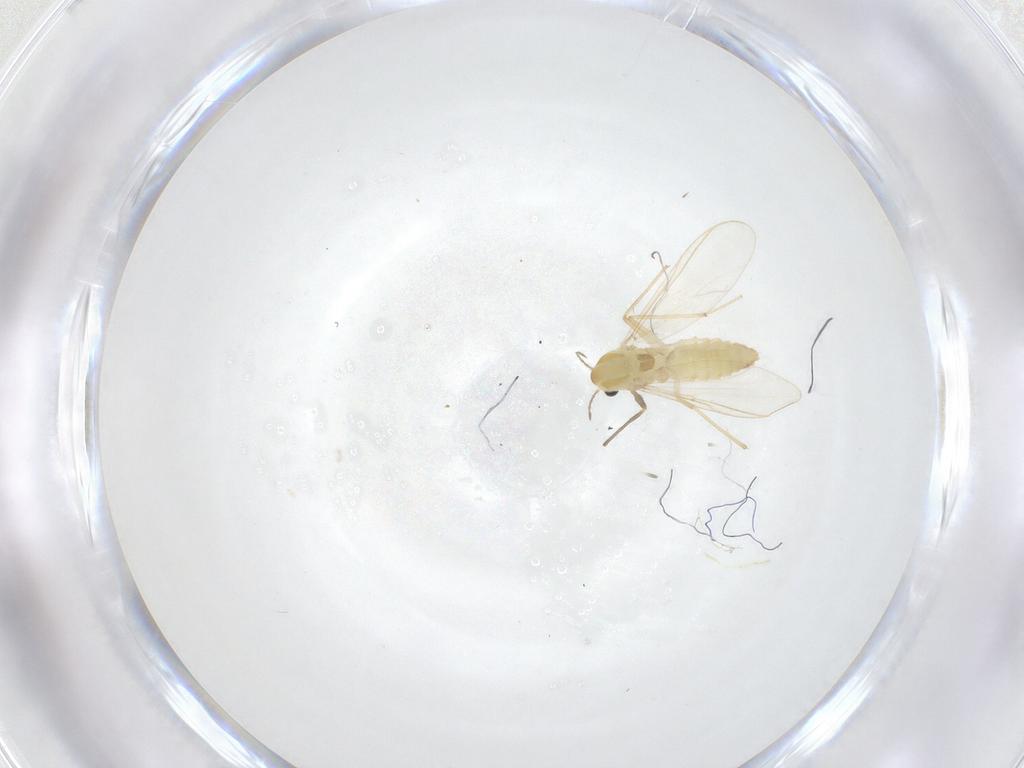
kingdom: Animalia
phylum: Arthropoda
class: Insecta
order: Diptera
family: Chironomidae
